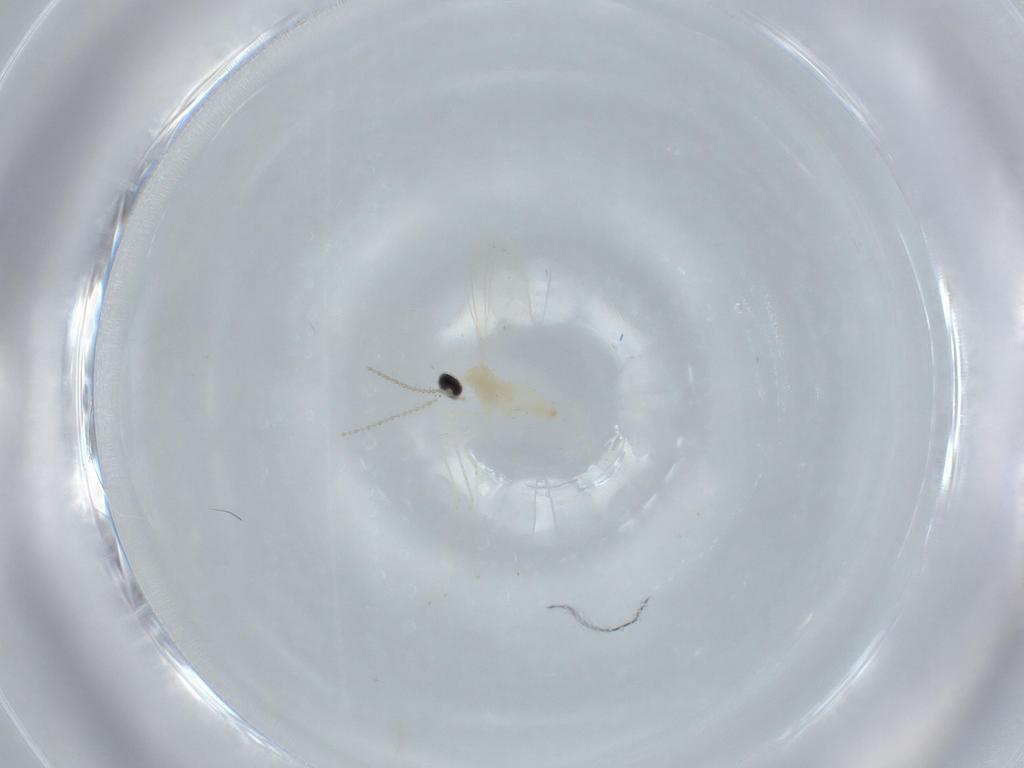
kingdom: Animalia
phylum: Arthropoda
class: Insecta
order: Diptera
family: Cecidomyiidae
